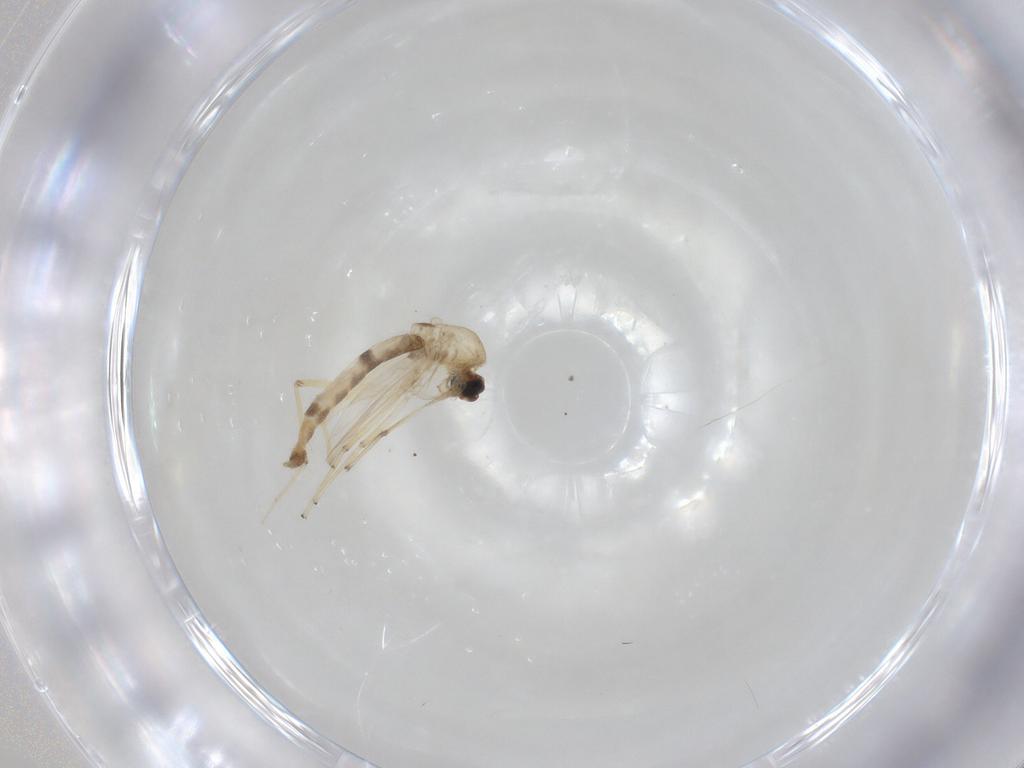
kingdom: Animalia
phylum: Arthropoda
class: Insecta
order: Diptera
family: Chironomidae
